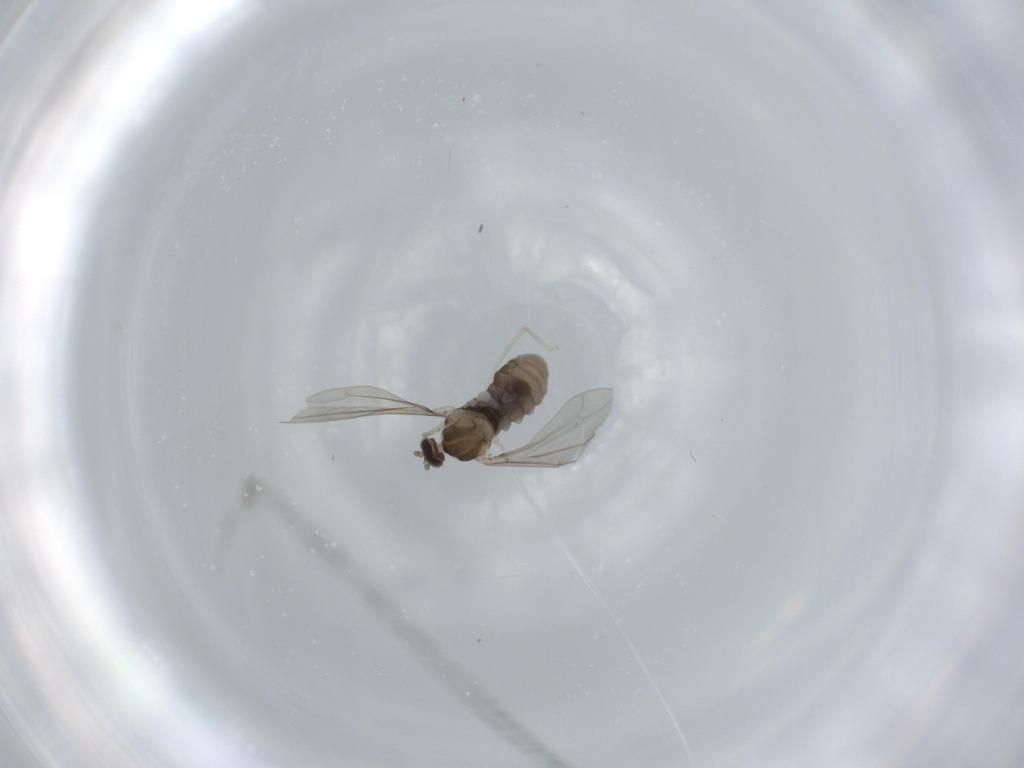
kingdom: Animalia
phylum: Arthropoda
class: Insecta
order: Diptera
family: Cecidomyiidae
